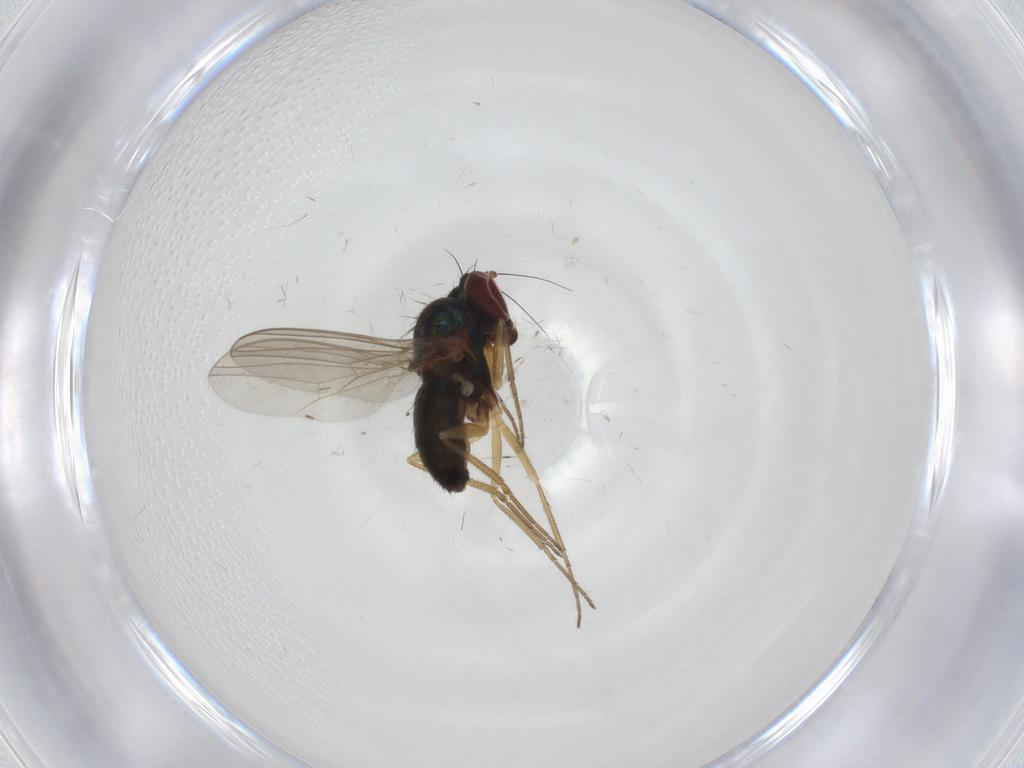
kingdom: Animalia
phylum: Arthropoda
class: Insecta
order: Diptera
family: Dolichopodidae
